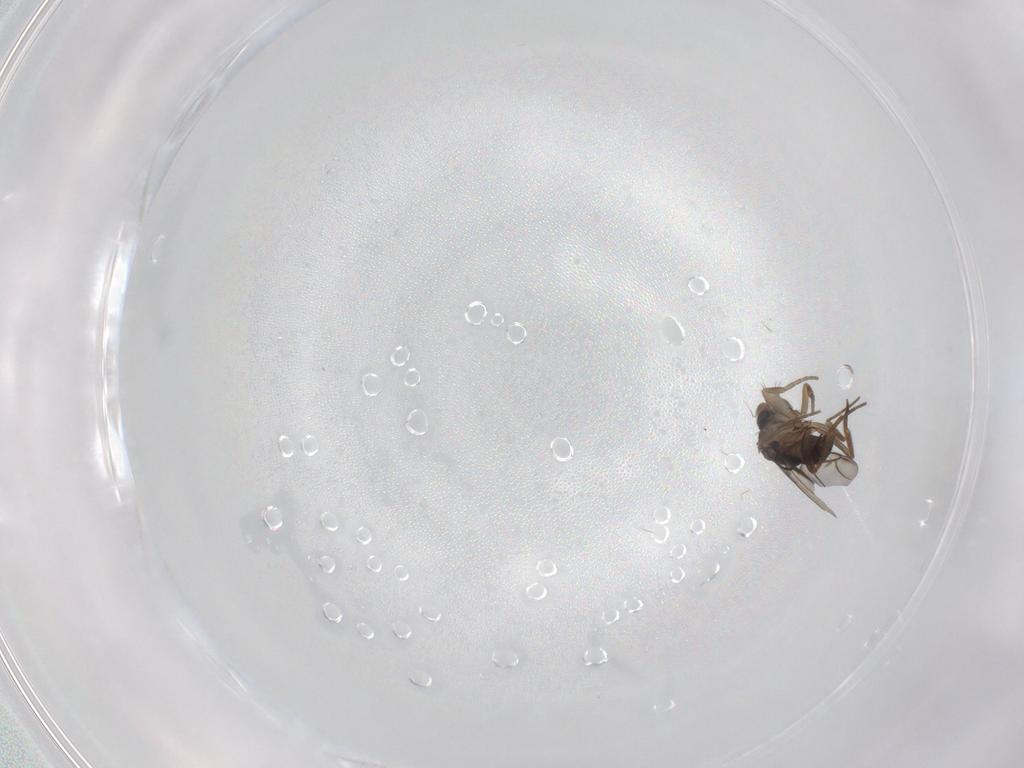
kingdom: Animalia
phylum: Arthropoda
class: Insecta
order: Diptera
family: Phoridae
